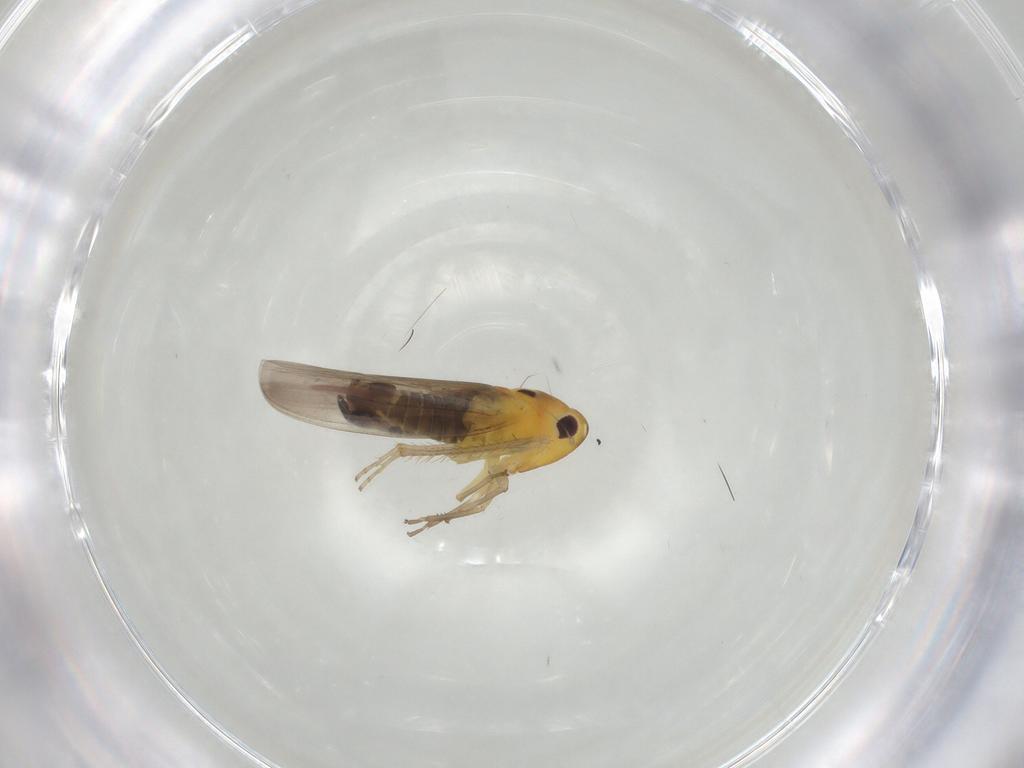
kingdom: Animalia
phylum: Arthropoda
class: Insecta
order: Hemiptera
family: Cicadellidae
